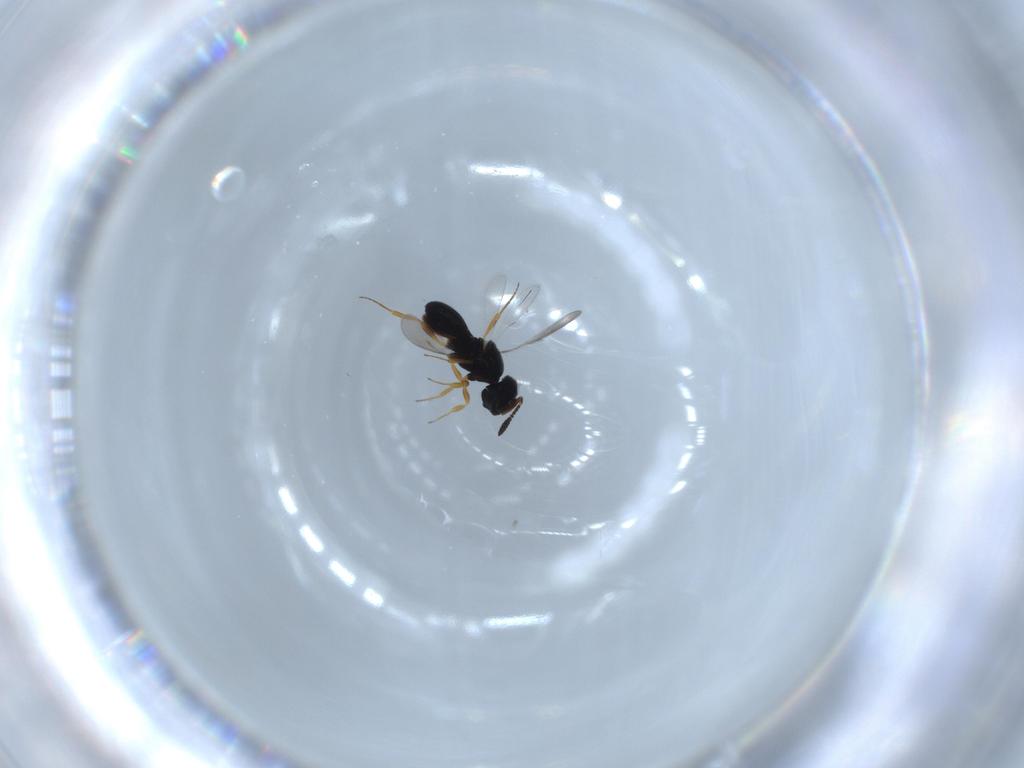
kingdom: Animalia
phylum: Arthropoda
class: Insecta
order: Hymenoptera
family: Scelionidae
